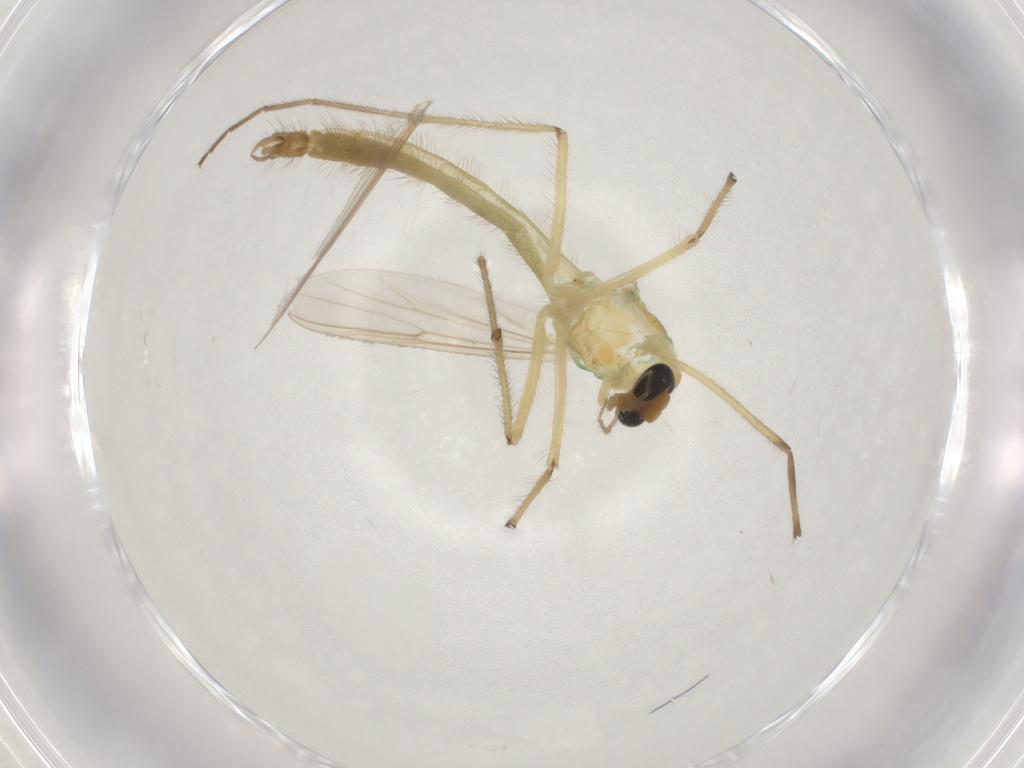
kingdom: Animalia
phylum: Arthropoda
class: Insecta
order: Diptera
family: Chironomidae
